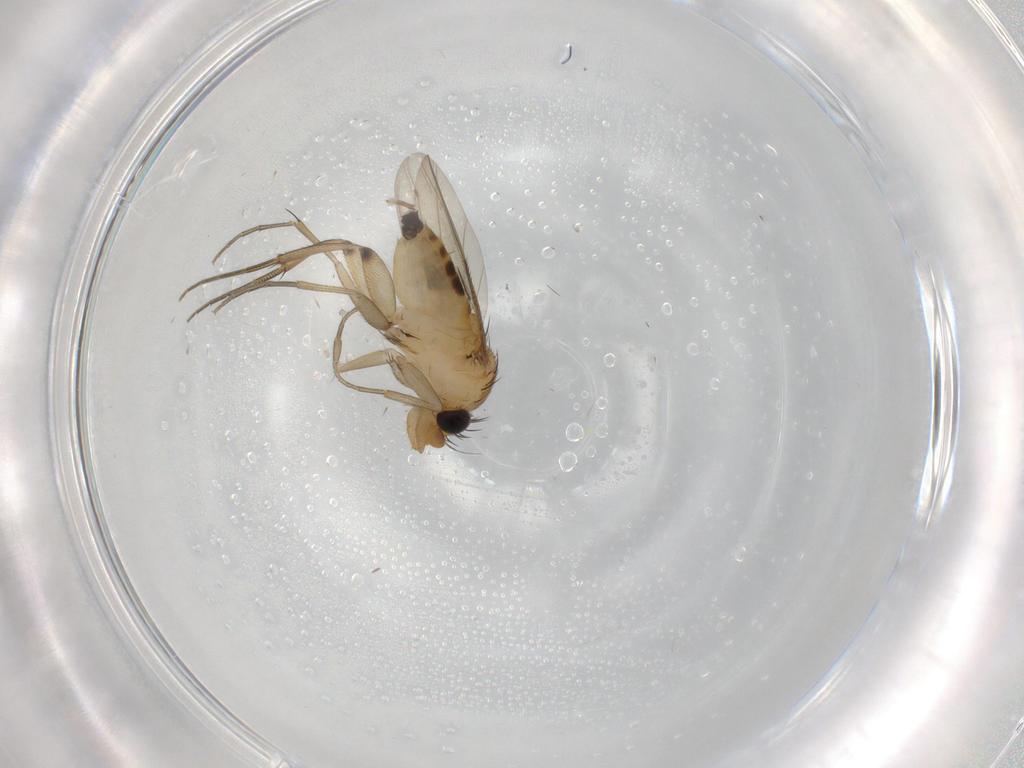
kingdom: Animalia
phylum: Arthropoda
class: Insecta
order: Diptera
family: Phoridae
